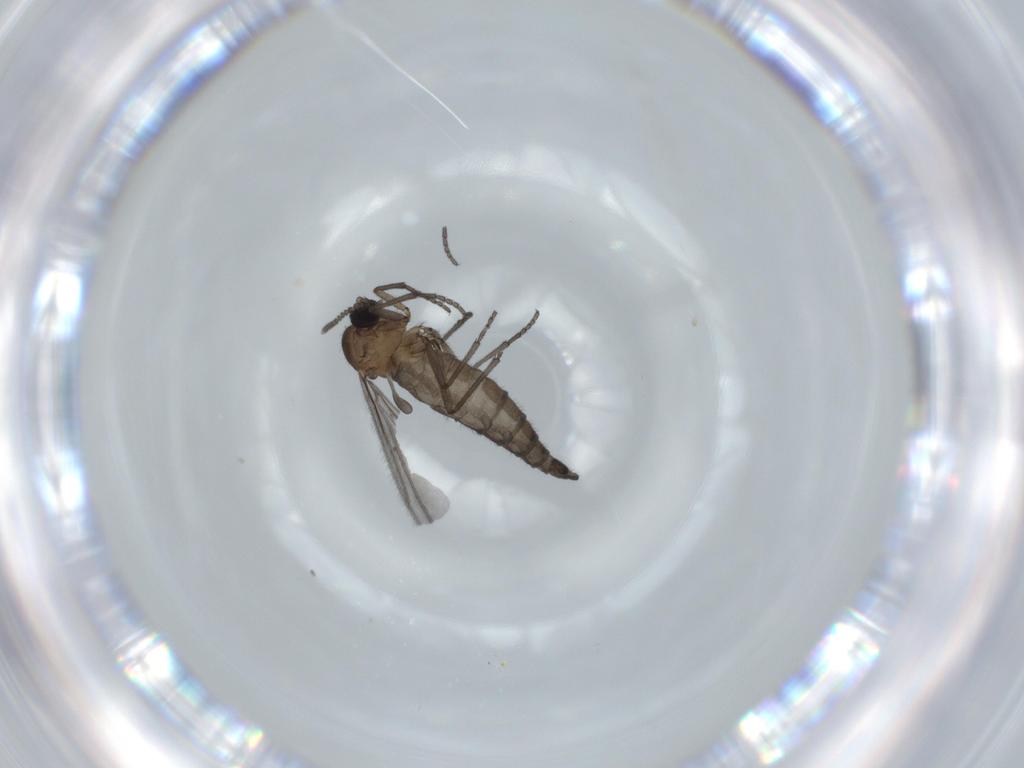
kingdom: Animalia
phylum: Arthropoda
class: Insecta
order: Diptera
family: Sciaridae
